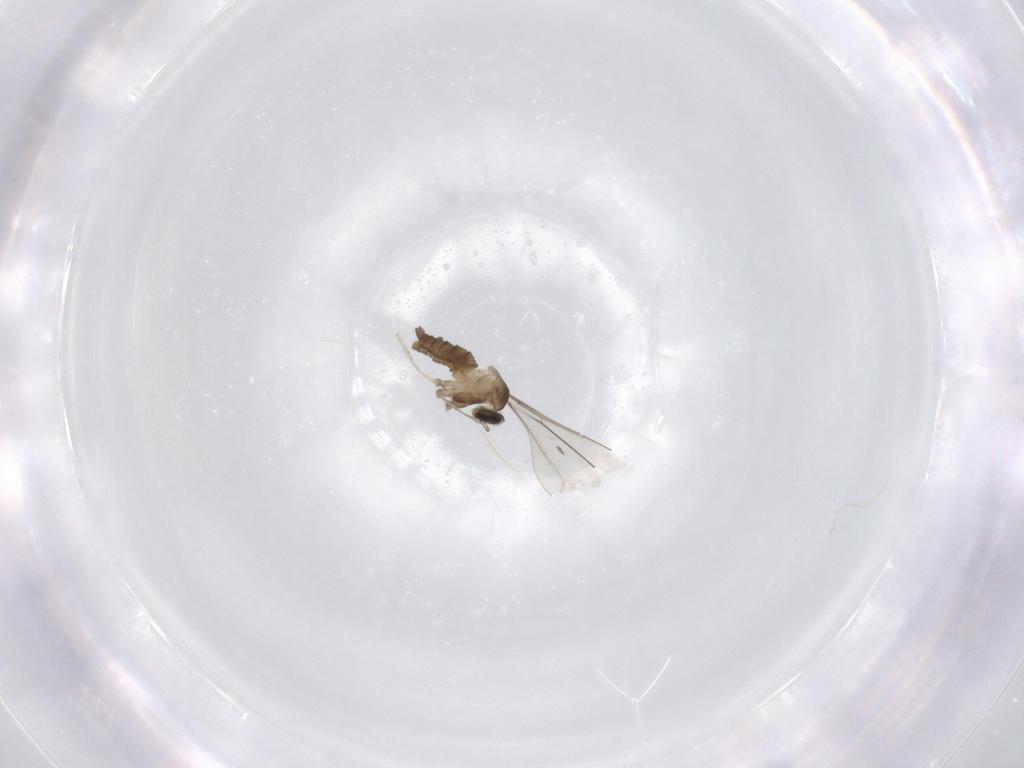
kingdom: Animalia
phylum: Arthropoda
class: Insecta
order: Diptera
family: Cecidomyiidae
